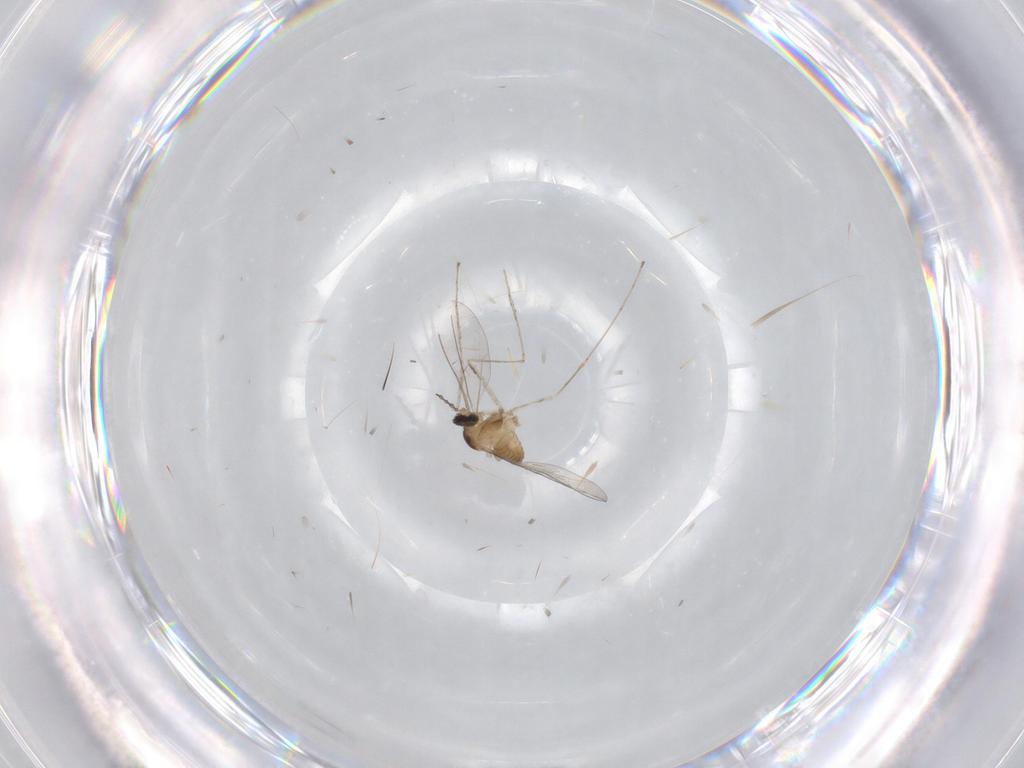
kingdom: Animalia
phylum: Arthropoda
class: Insecta
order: Diptera
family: Cecidomyiidae
